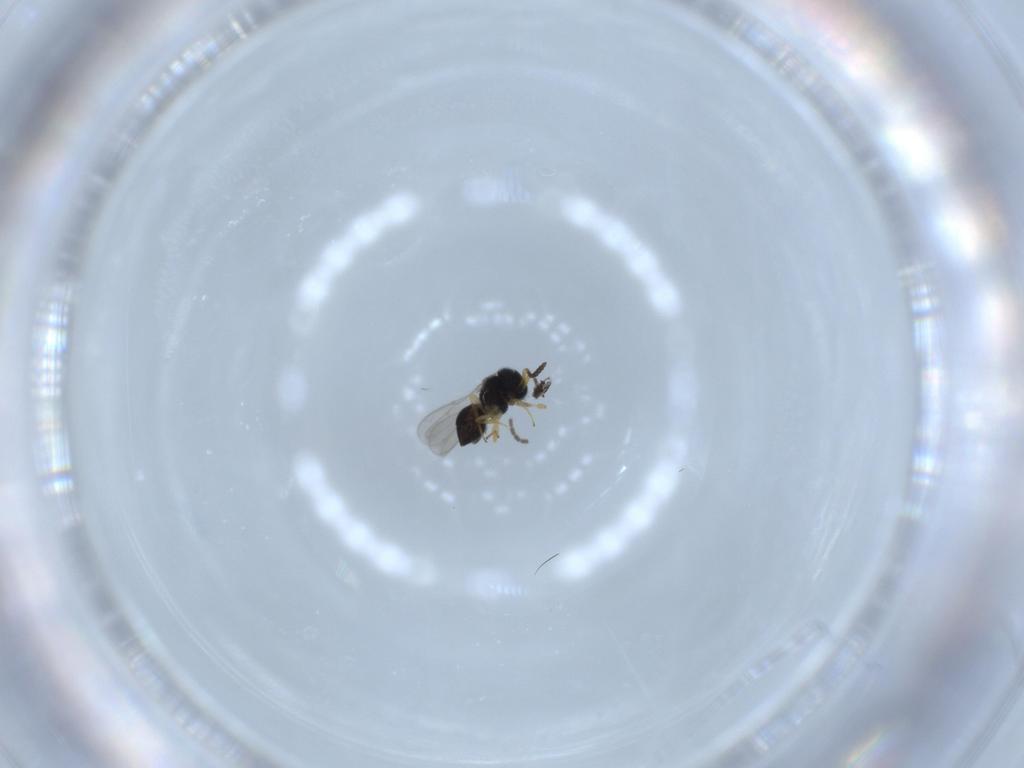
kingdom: Animalia
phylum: Arthropoda
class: Insecta
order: Hymenoptera
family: Scelionidae
